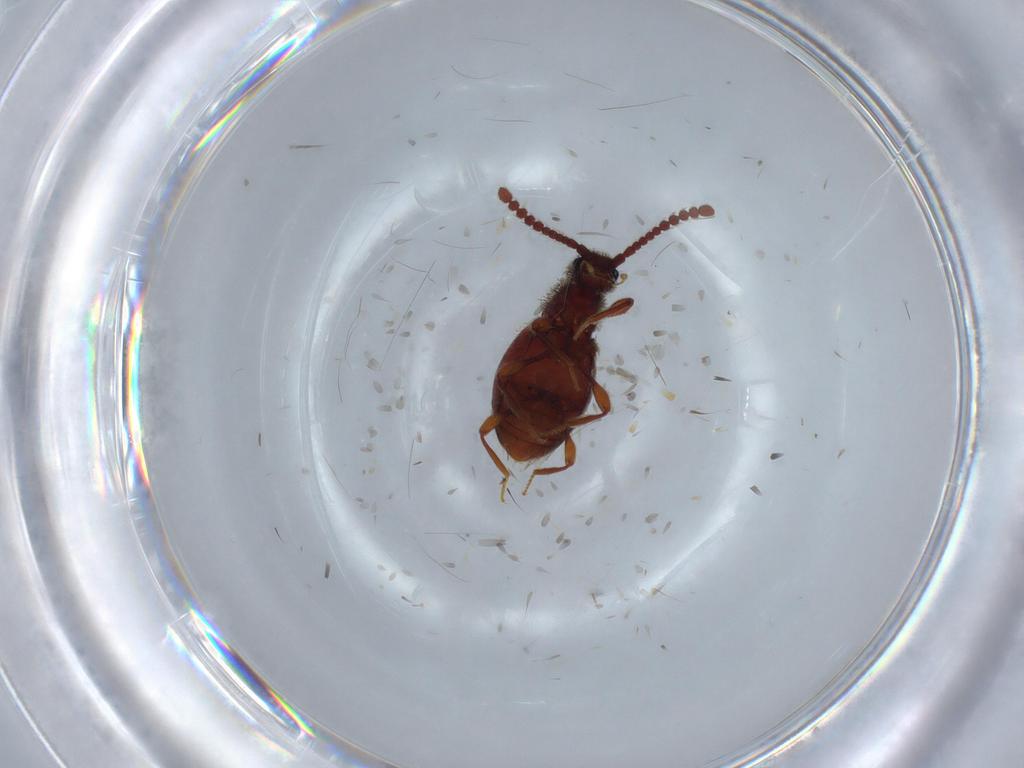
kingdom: Animalia
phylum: Arthropoda
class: Insecta
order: Coleoptera
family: Staphylinidae
